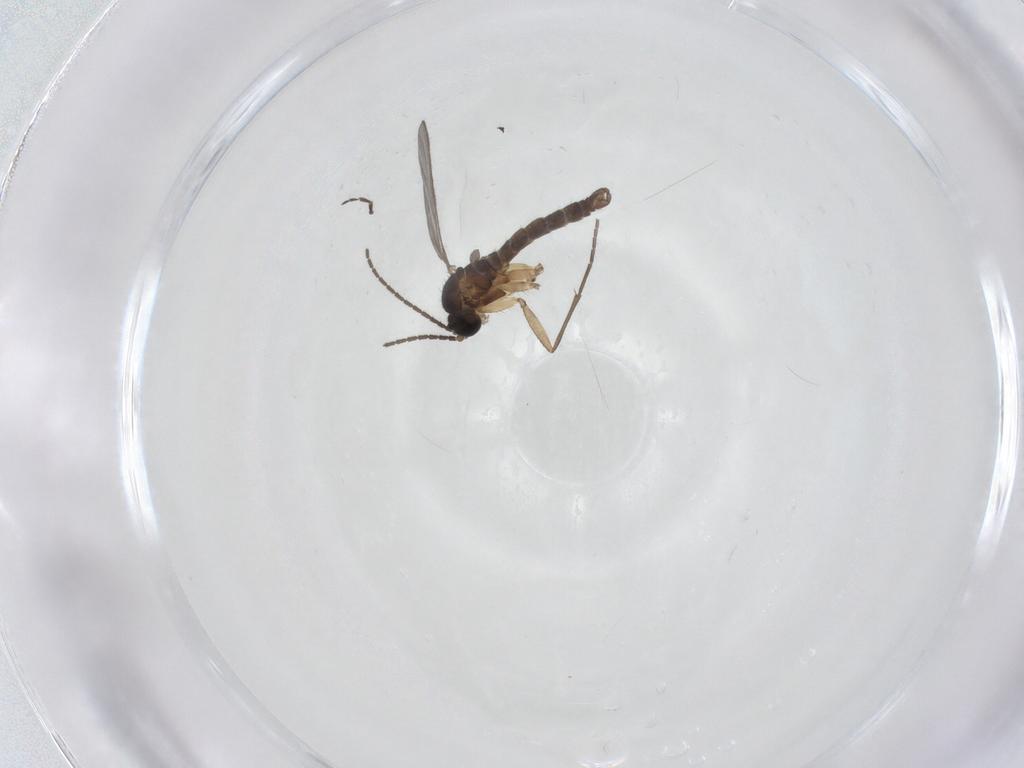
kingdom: Animalia
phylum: Arthropoda
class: Insecta
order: Diptera
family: Sciaridae
